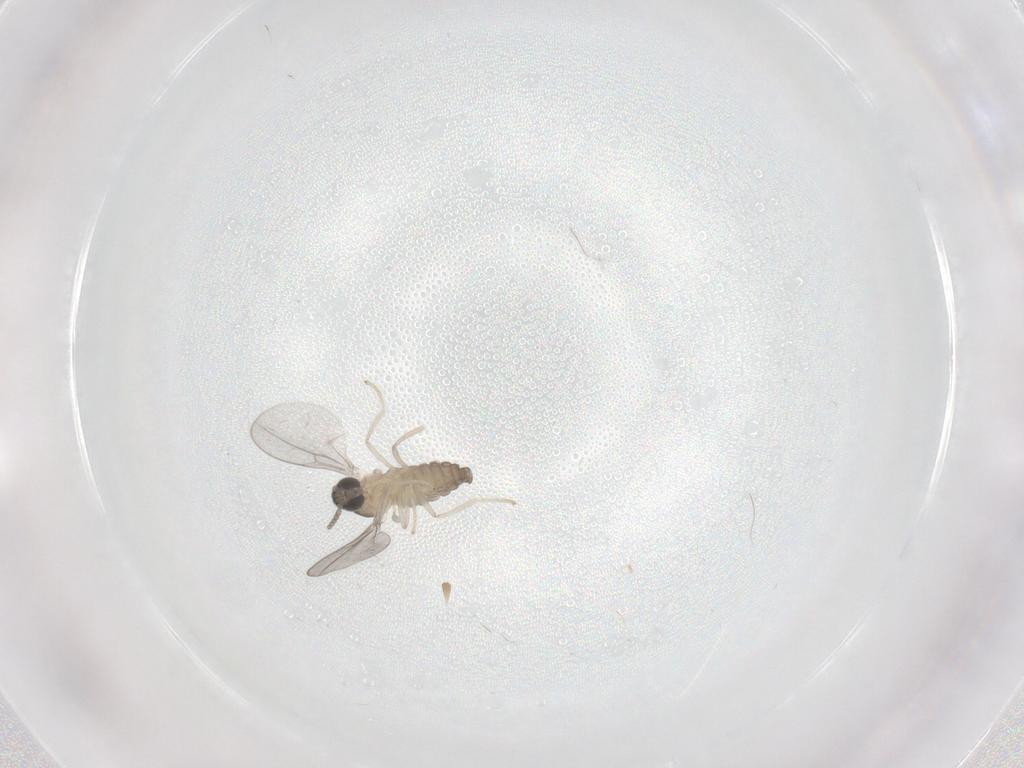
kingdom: Animalia
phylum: Arthropoda
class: Insecta
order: Diptera
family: Cecidomyiidae
